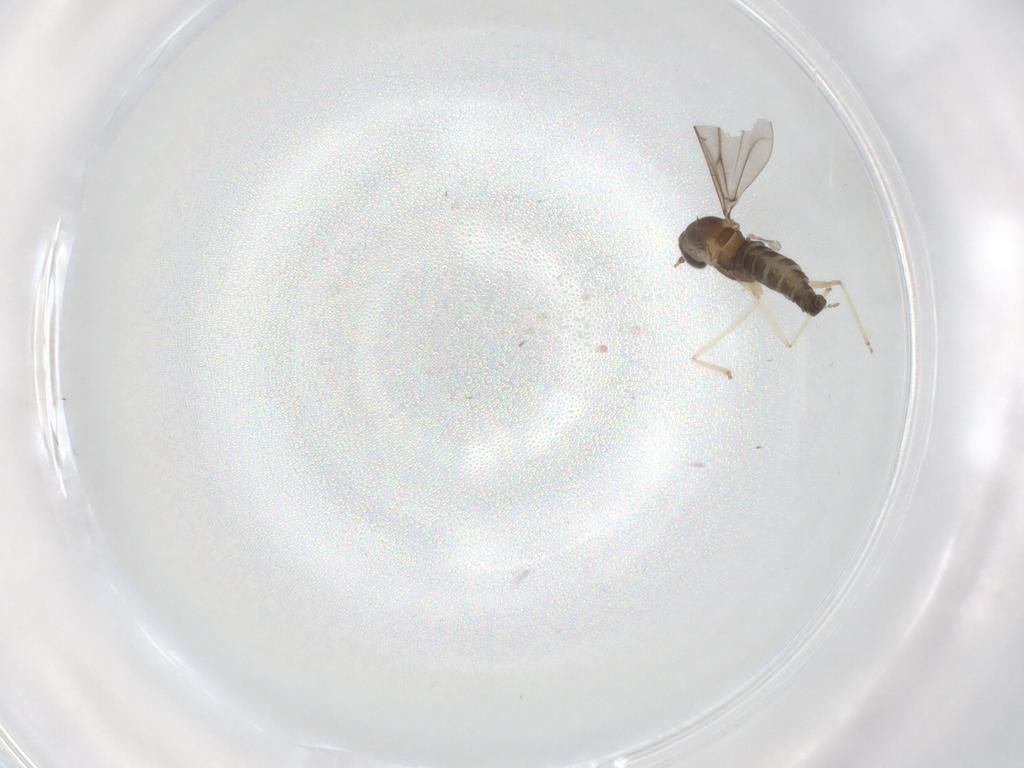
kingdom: Animalia
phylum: Arthropoda
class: Insecta
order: Diptera
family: Cecidomyiidae
